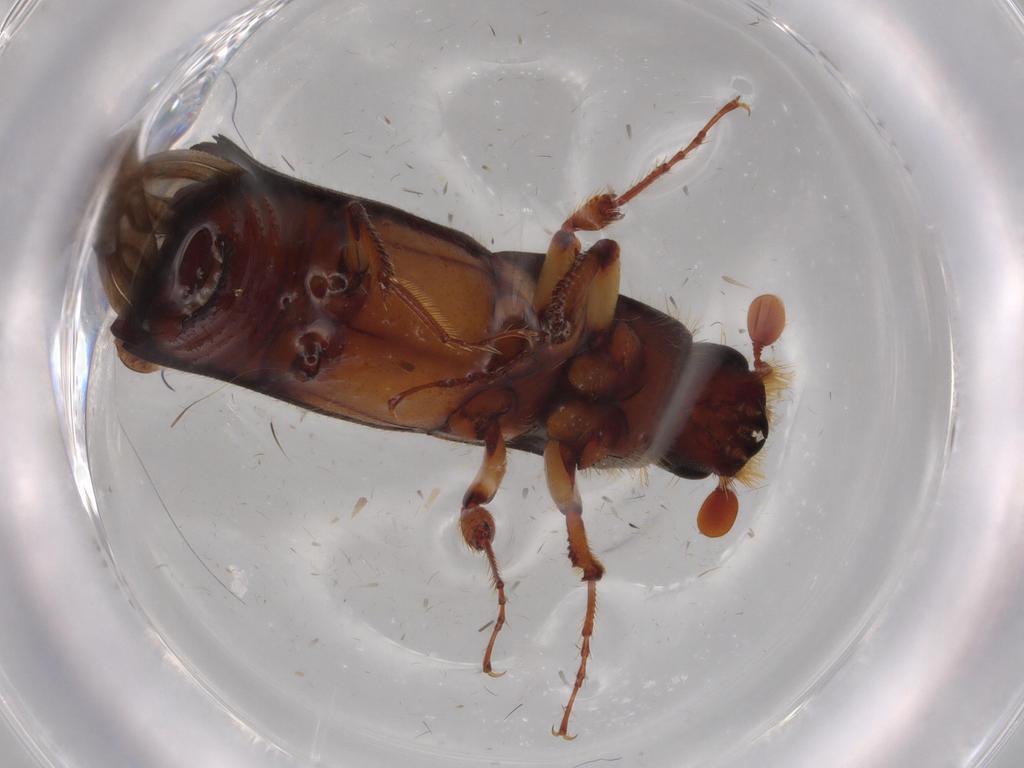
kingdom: Animalia
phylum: Arthropoda
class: Insecta
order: Coleoptera
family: Curculionidae
